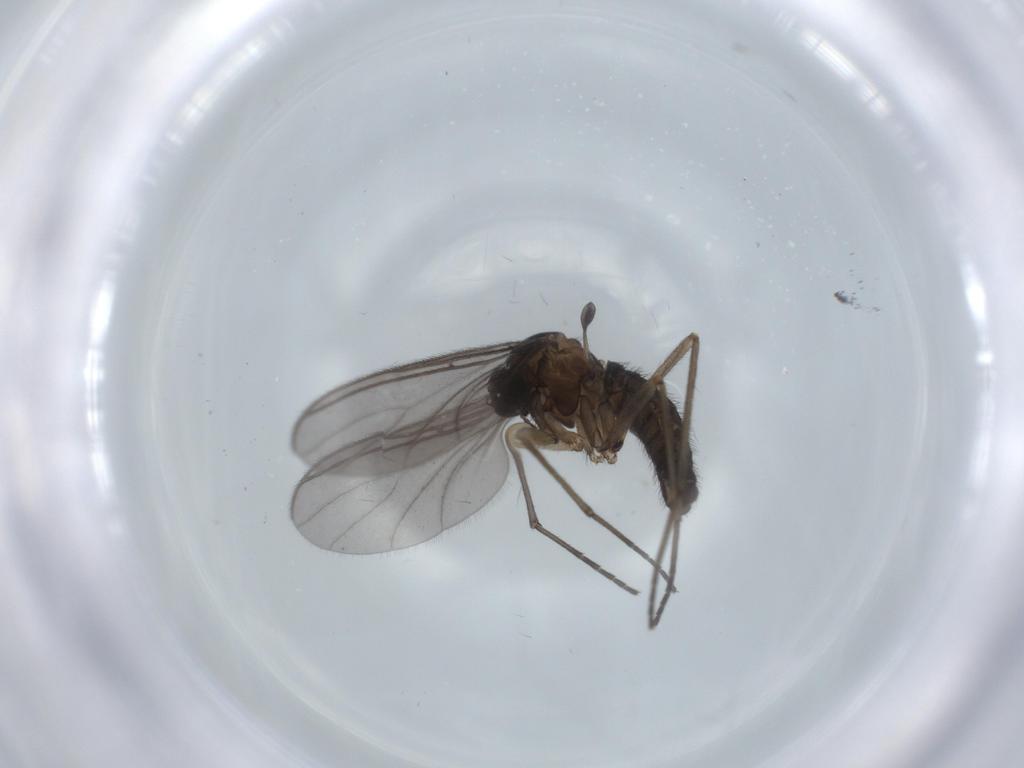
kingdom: Animalia
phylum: Arthropoda
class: Insecta
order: Diptera
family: Sciaridae
